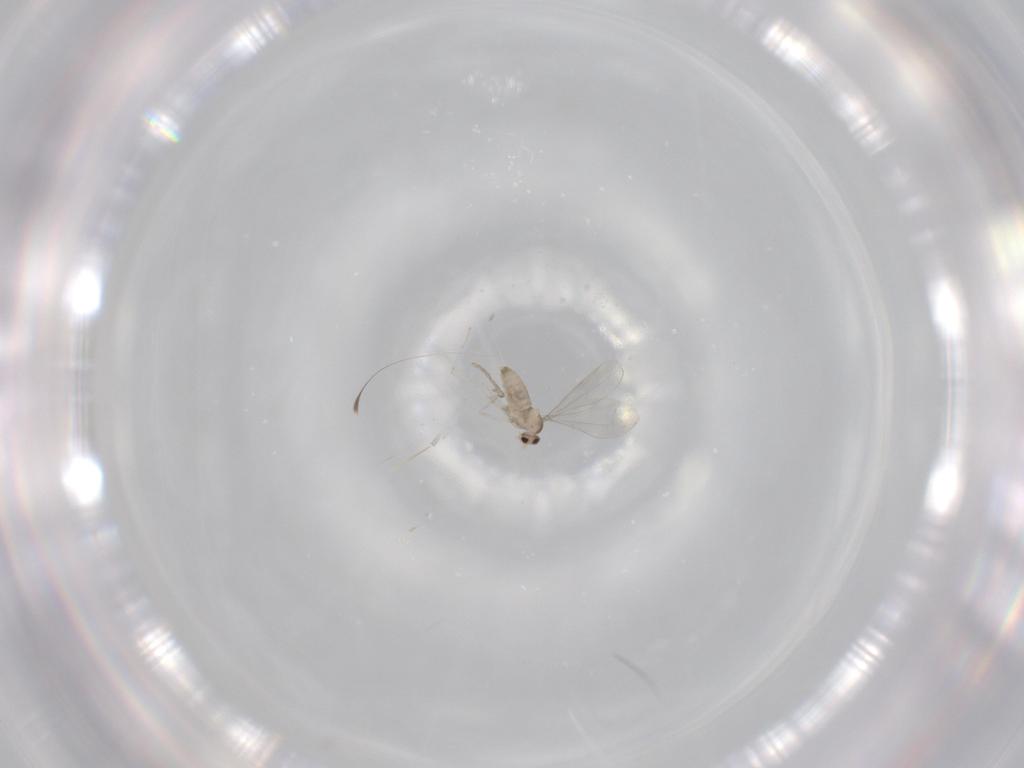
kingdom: Animalia
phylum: Arthropoda
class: Insecta
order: Diptera
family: Cecidomyiidae
